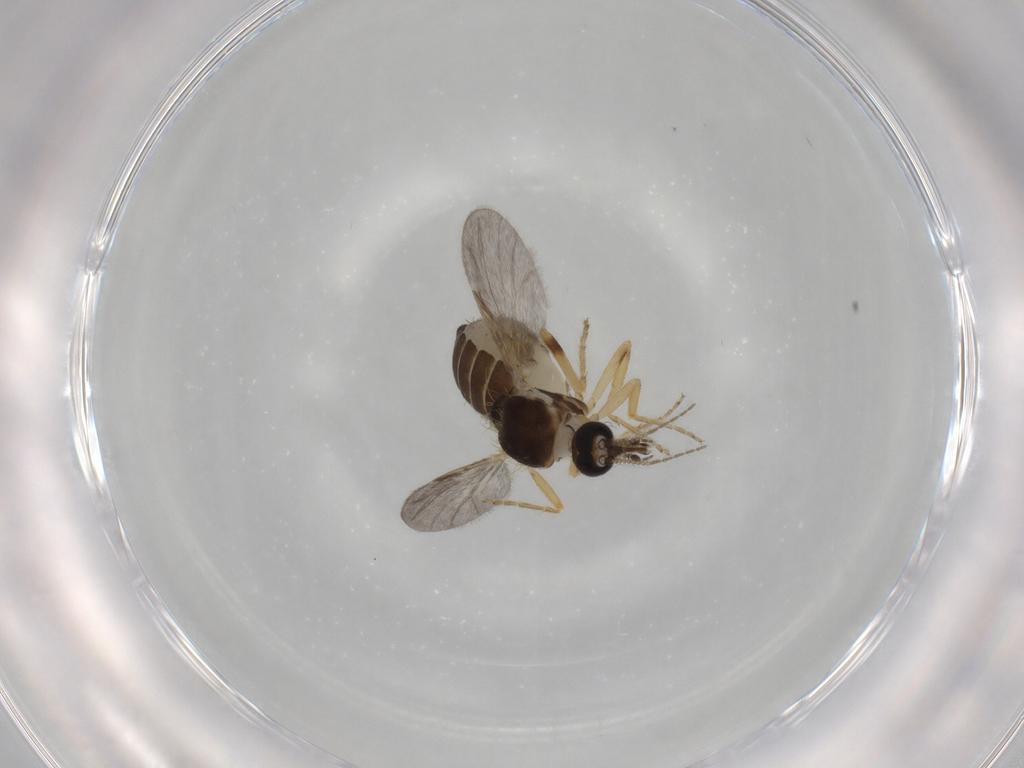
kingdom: Animalia
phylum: Arthropoda
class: Insecta
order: Diptera
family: Ceratopogonidae
